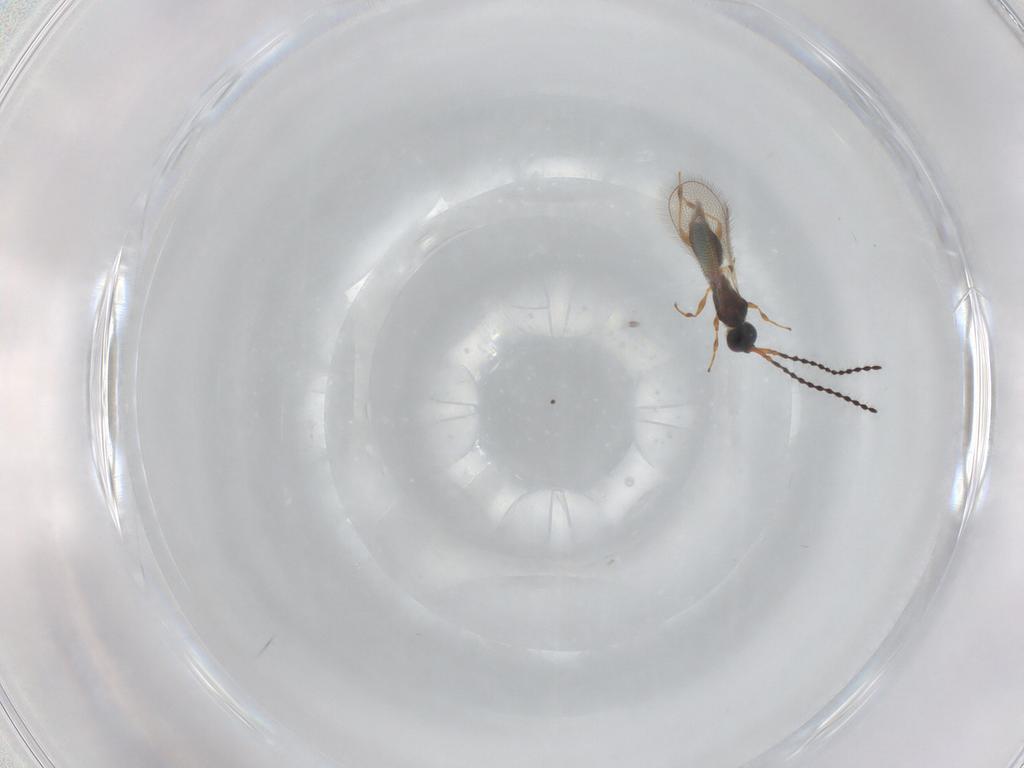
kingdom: Animalia
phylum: Arthropoda
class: Insecta
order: Hymenoptera
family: Diapriidae
